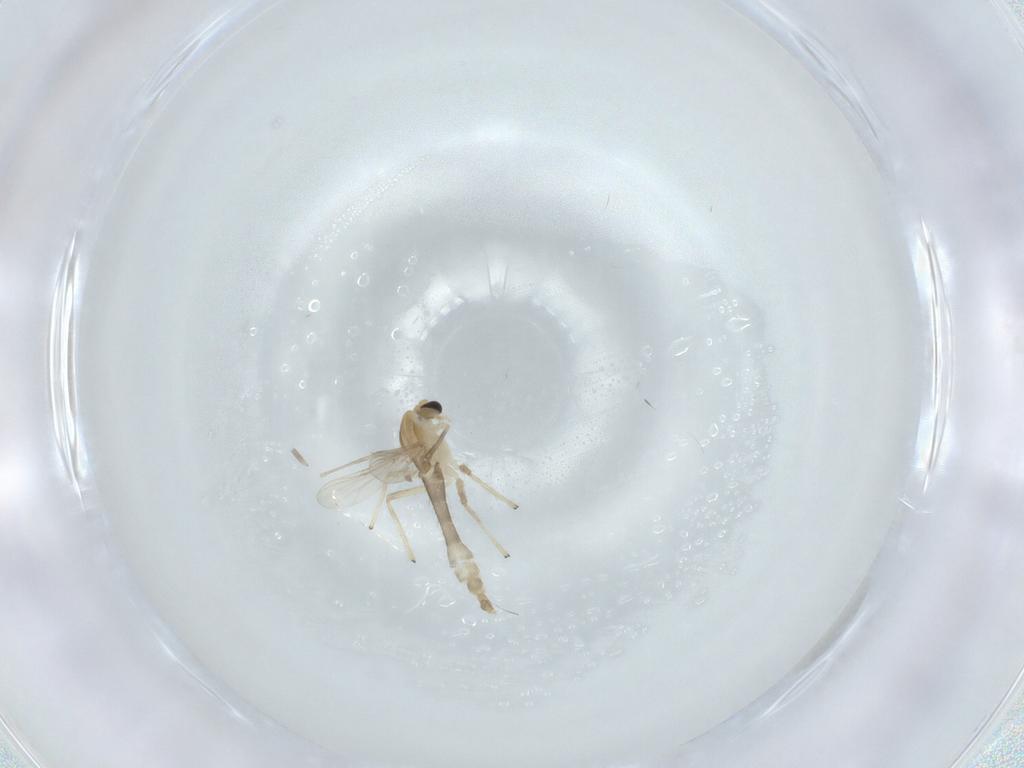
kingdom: Animalia
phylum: Arthropoda
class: Insecta
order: Diptera
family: Chironomidae
